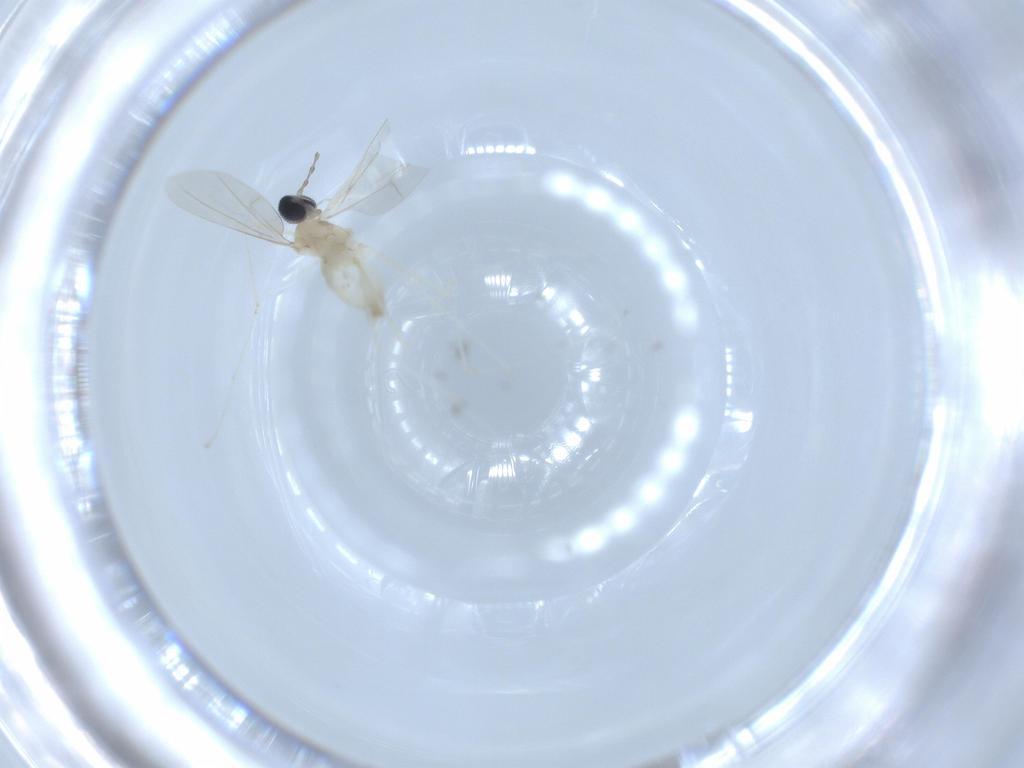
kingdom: Animalia
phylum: Arthropoda
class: Insecta
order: Diptera
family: Cecidomyiidae
